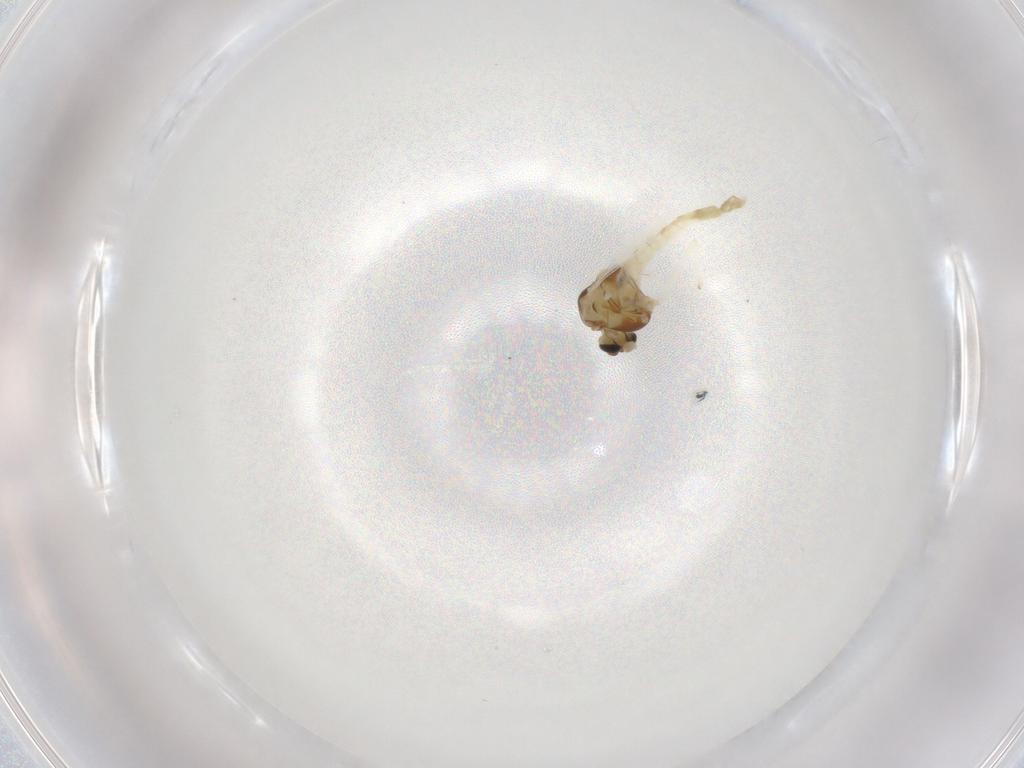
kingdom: Animalia
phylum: Arthropoda
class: Insecta
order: Diptera
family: Chironomidae
